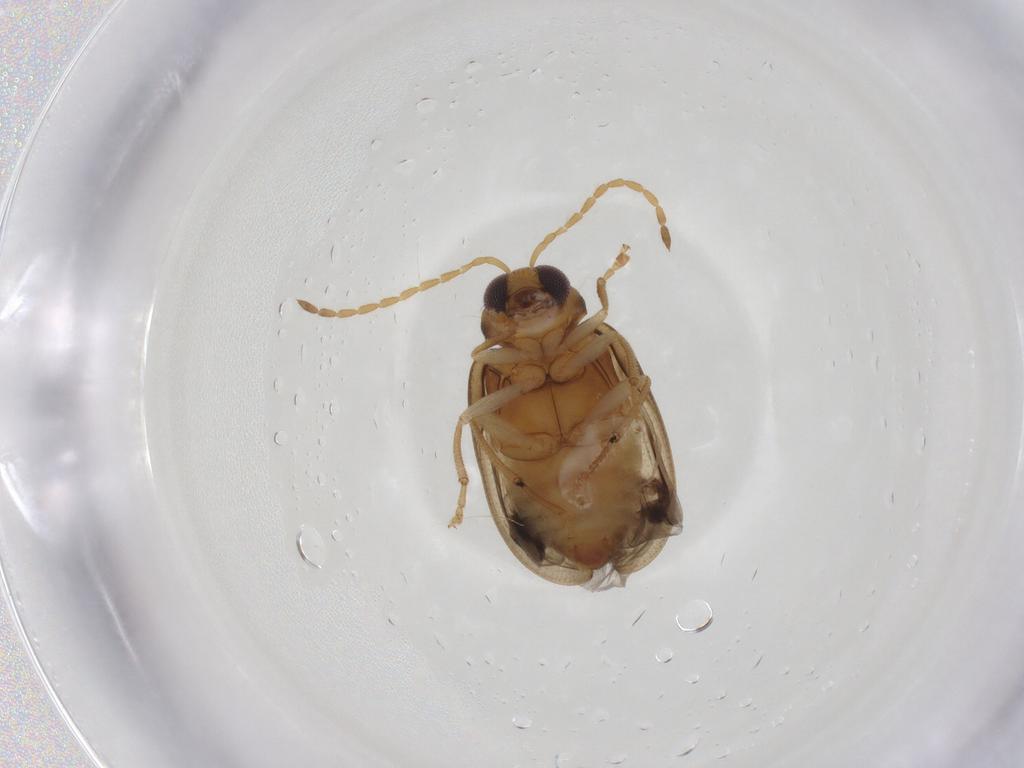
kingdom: Animalia
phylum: Arthropoda
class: Insecta
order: Coleoptera
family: Chrysomelidae
